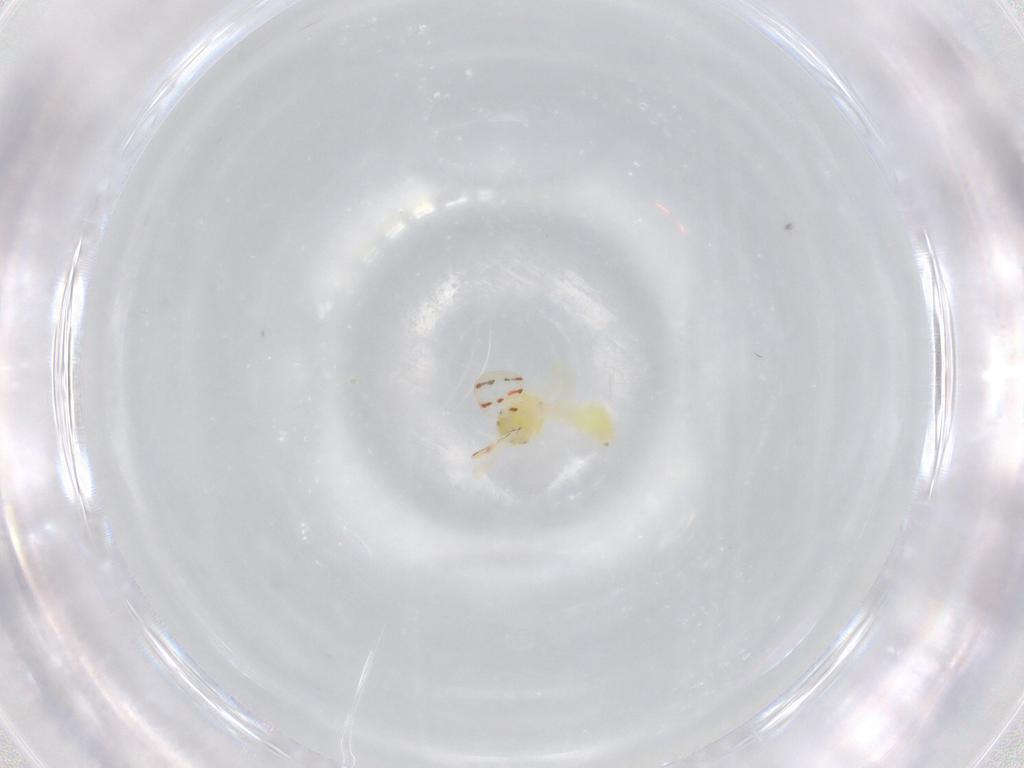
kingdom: Animalia
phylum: Arthropoda
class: Insecta
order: Hemiptera
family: Aleyrodidae
